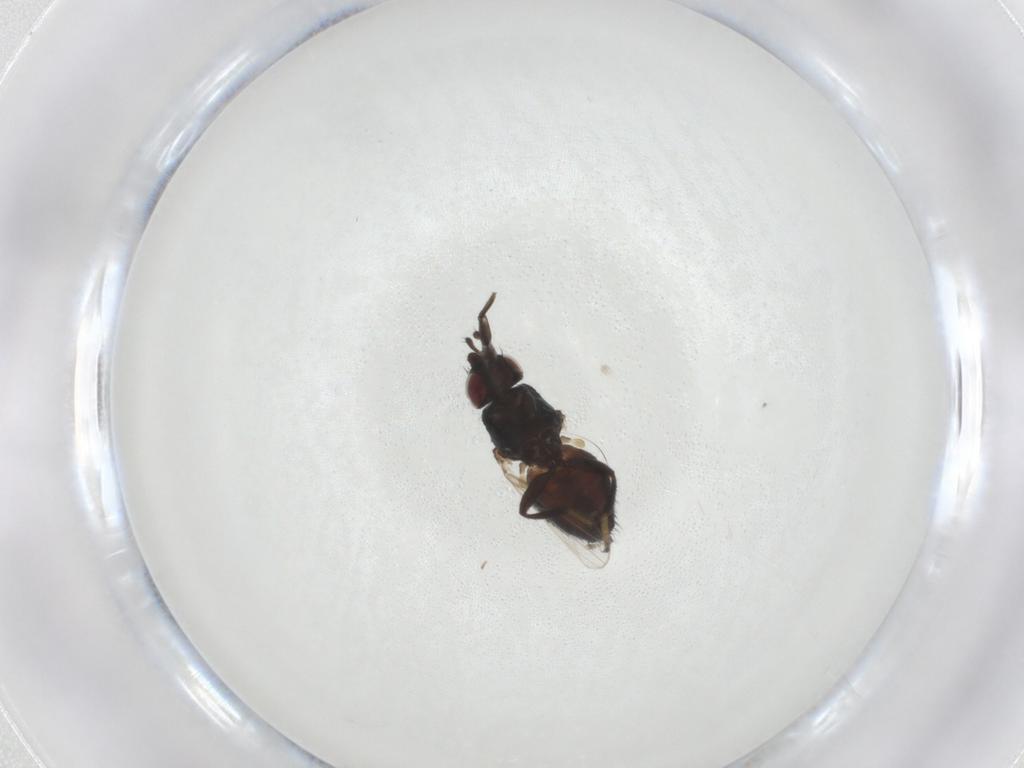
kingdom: Animalia
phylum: Arthropoda
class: Insecta
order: Diptera
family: Milichiidae
